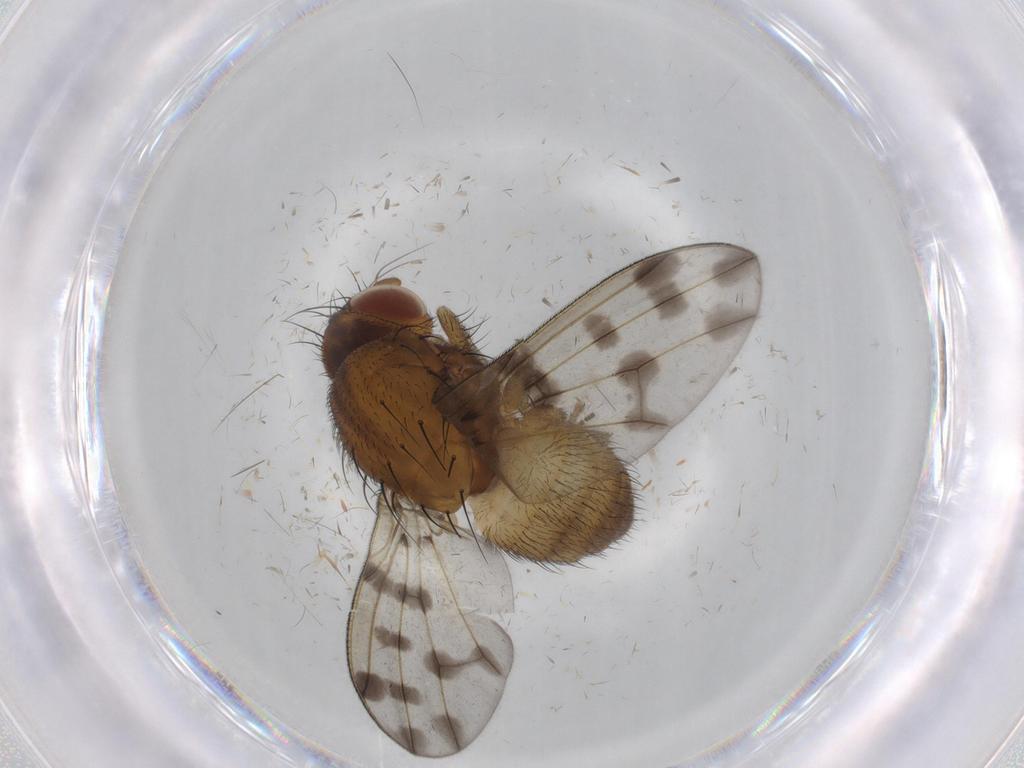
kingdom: Animalia
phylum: Arthropoda
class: Insecta
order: Diptera
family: Sciaridae
